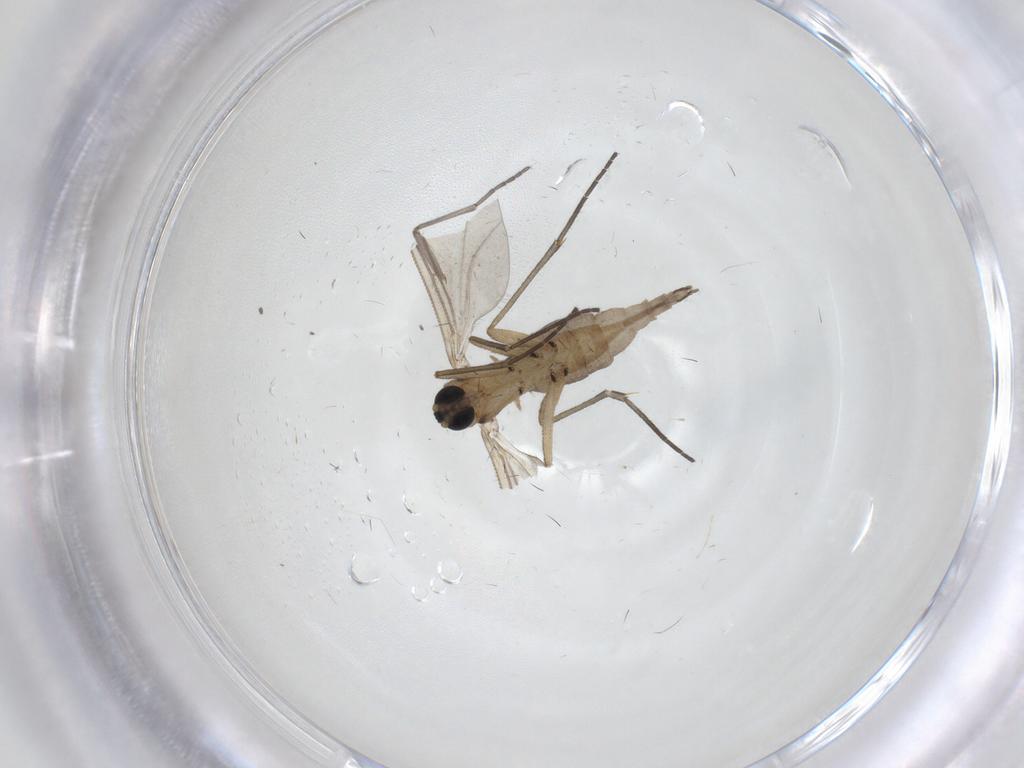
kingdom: Animalia
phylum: Arthropoda
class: Insecta
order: Diptera
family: Sciaridae
